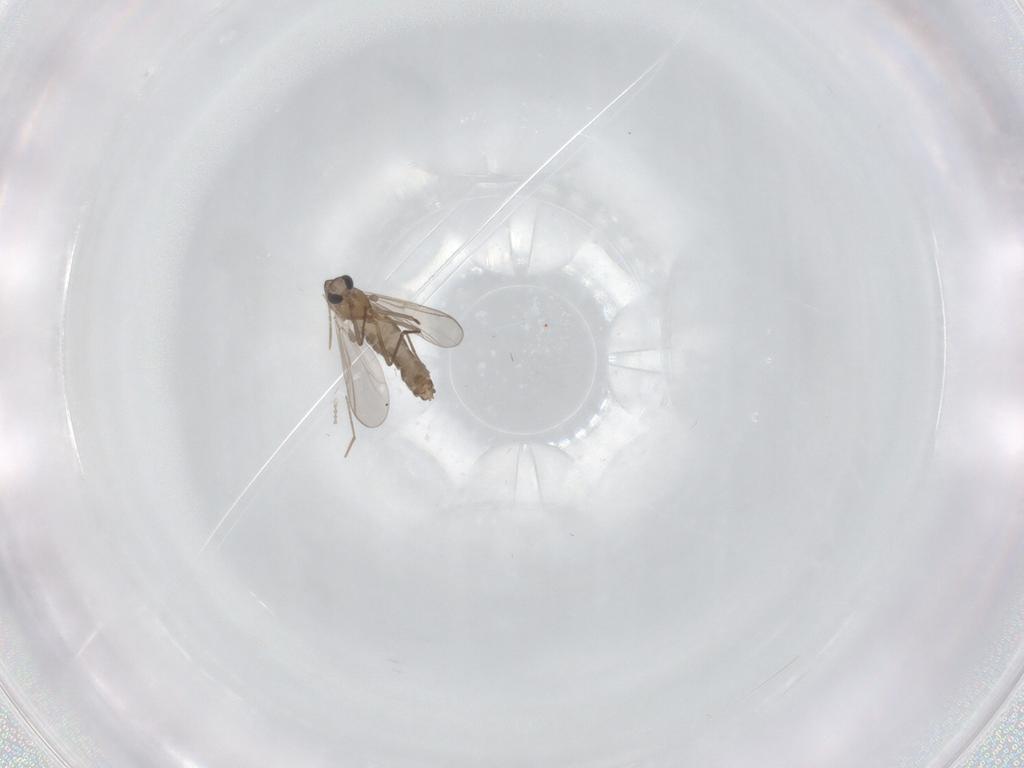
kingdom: Animalia
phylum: Arthropoda
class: Insecta
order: Diptera
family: Chironomidae
